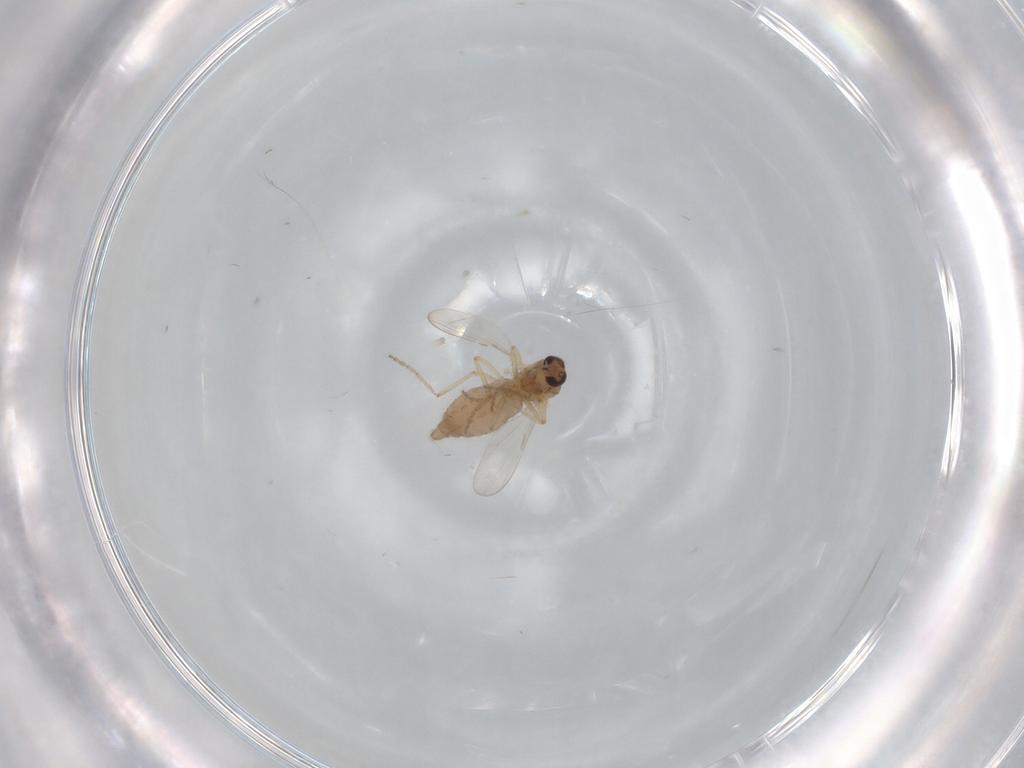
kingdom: Animalia
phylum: Arthropoda
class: Insecta
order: Diptera
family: Ceratopogonidae
